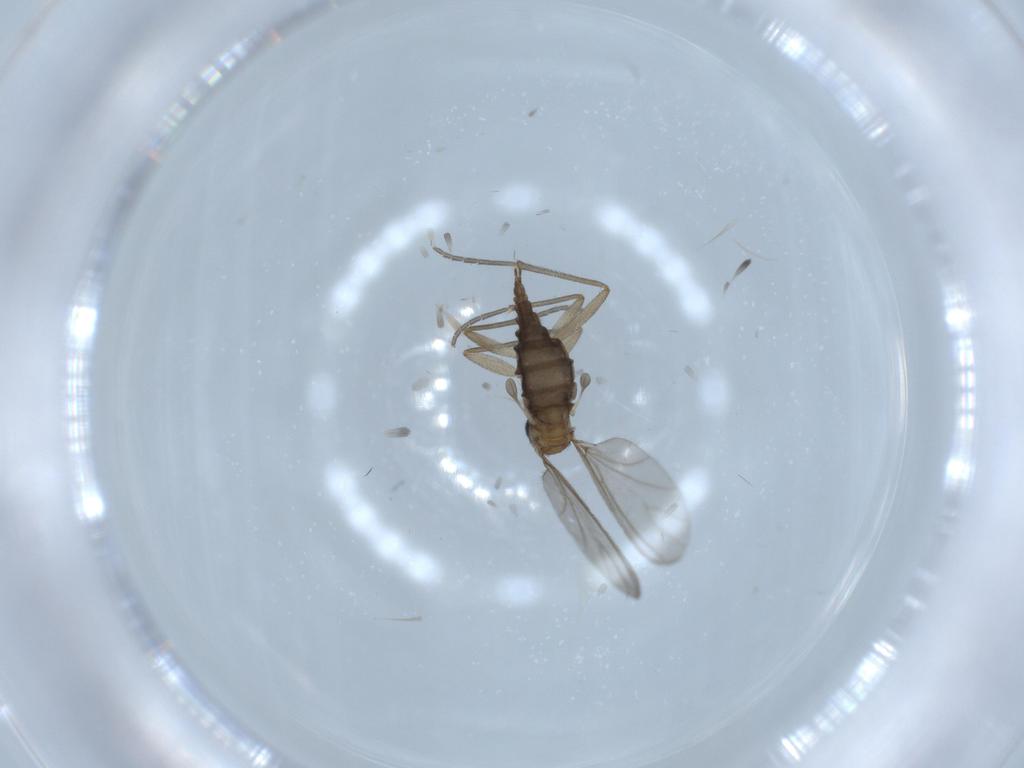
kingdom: Animalia
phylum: Arthropoda
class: Insecta
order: Diptera
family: Sciaridae
